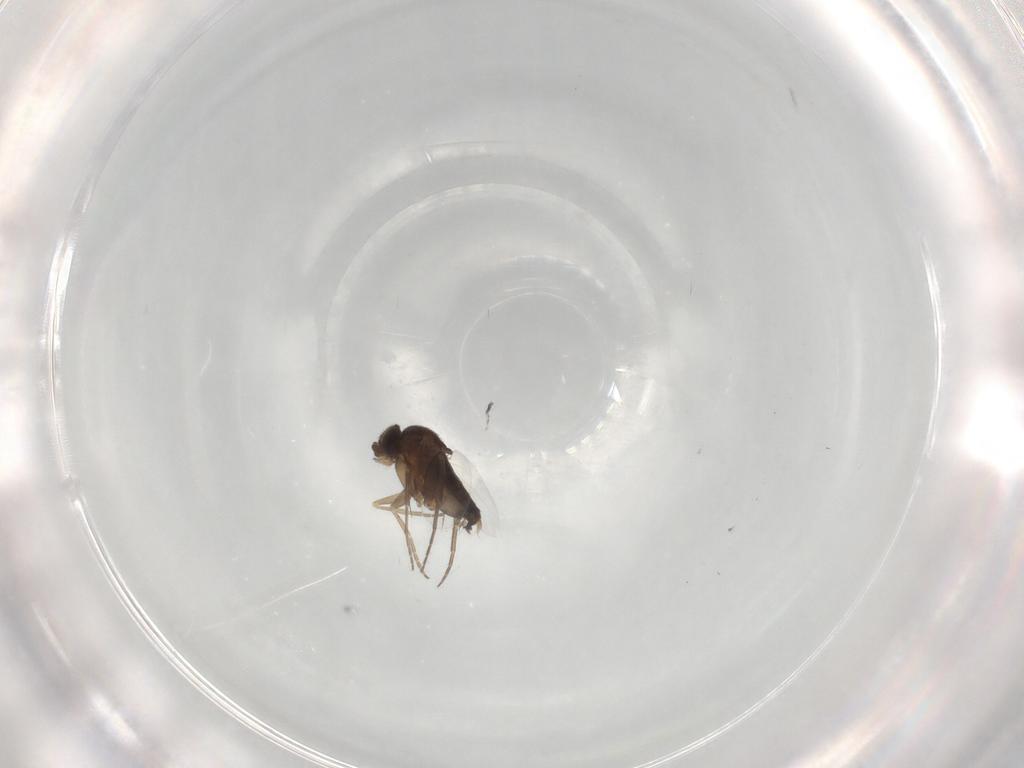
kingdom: Animalia
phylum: Arthropoda
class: Insecta
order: Diptera
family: Phoridae
